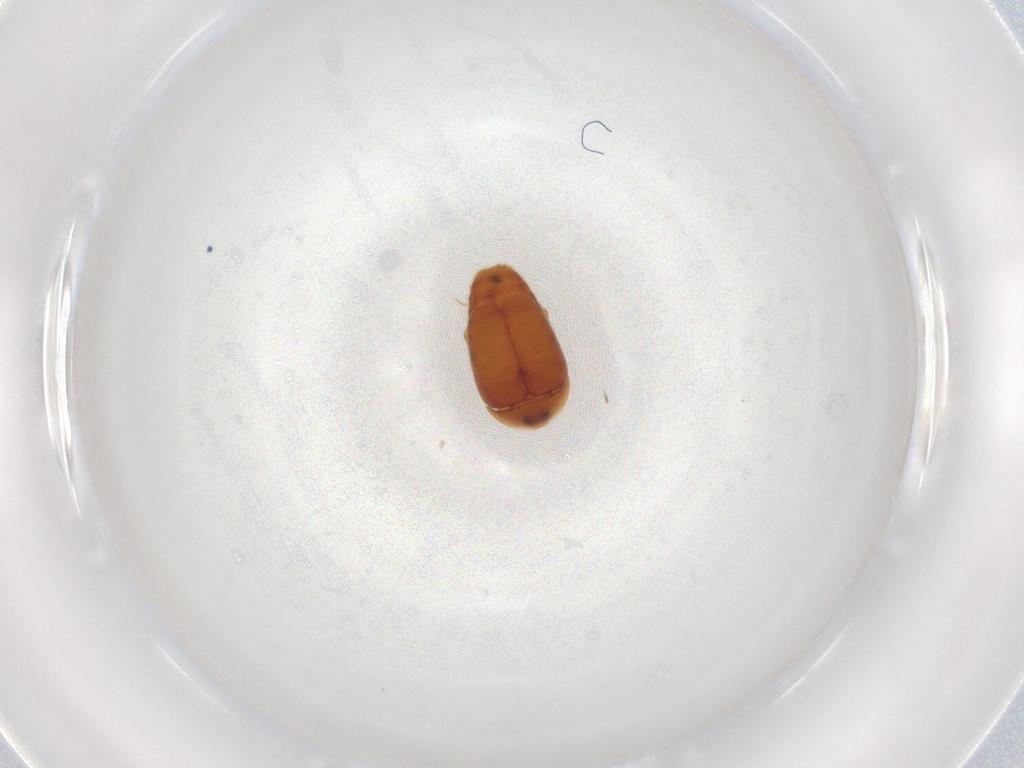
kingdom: Animalia
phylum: Arthropoda
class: Insecta
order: Coleoptera
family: Corylophidae
